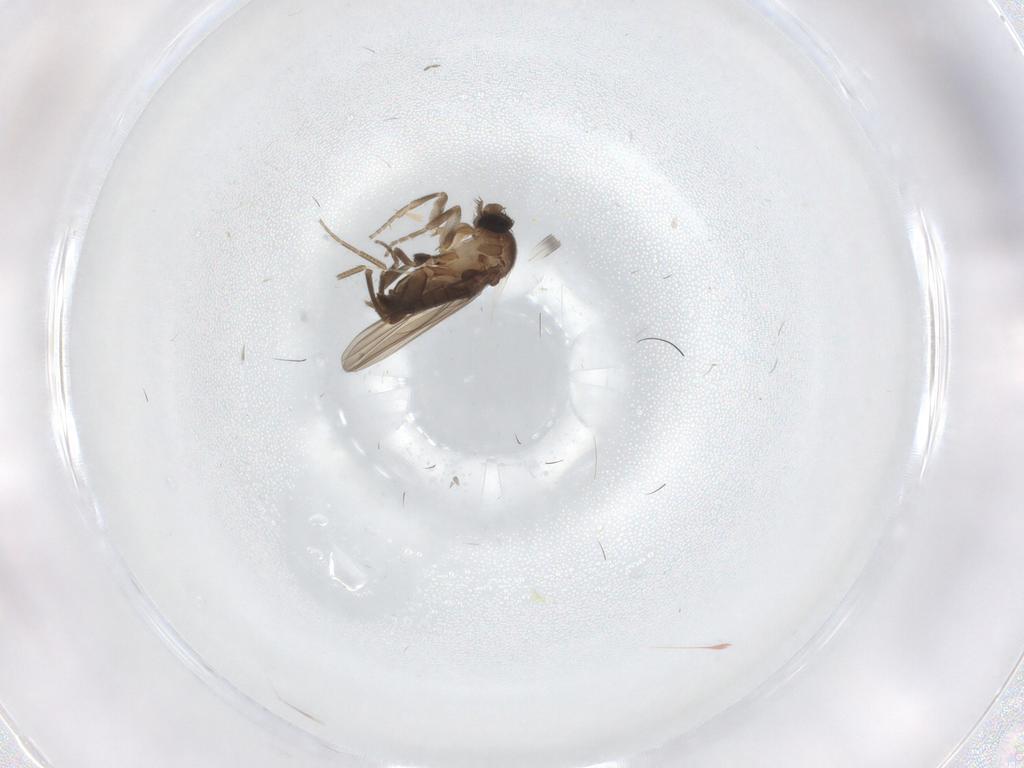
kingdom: Animalia
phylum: Arthropoda
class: Insecta
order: Diptera
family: Phoridae
